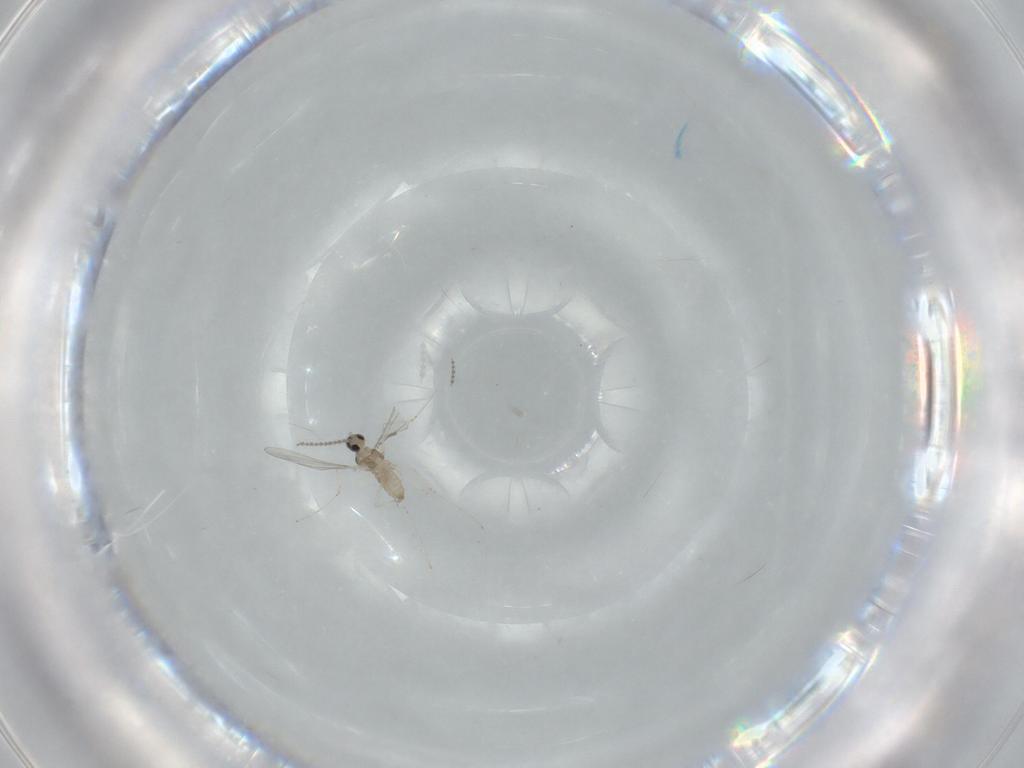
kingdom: Animalia
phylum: Arthropoda
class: Insecta
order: Diptera
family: Cecidomyiidae
